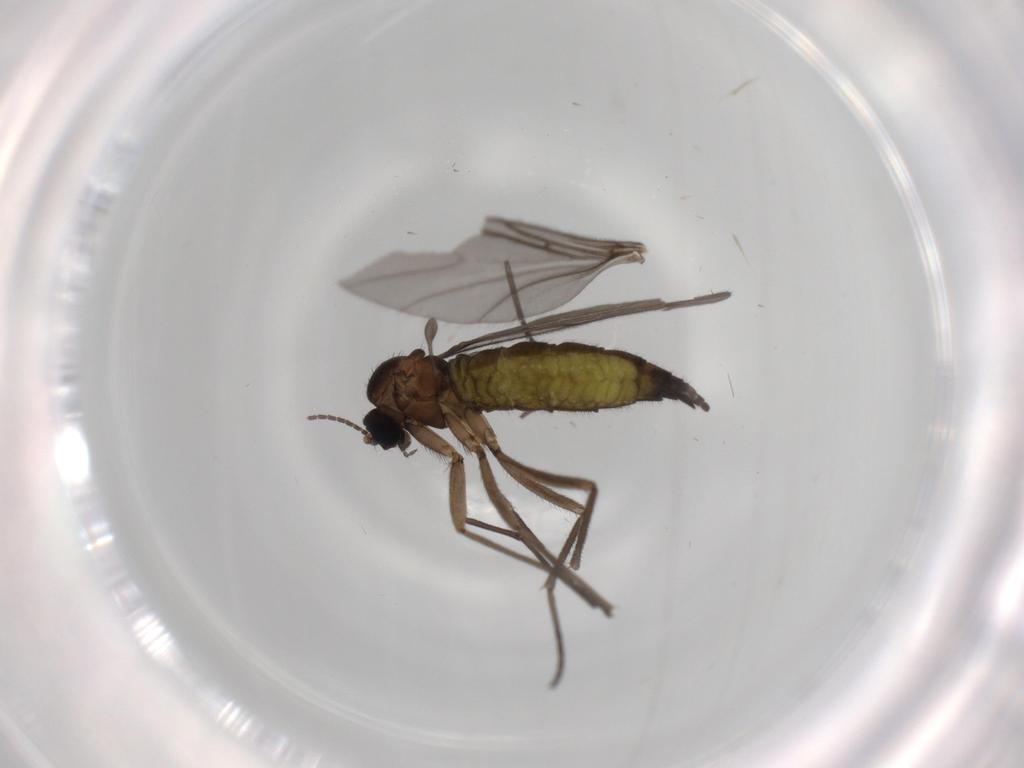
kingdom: Animalia
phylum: Arthropoda
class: Insecta
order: Diptera
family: Sciaridae
